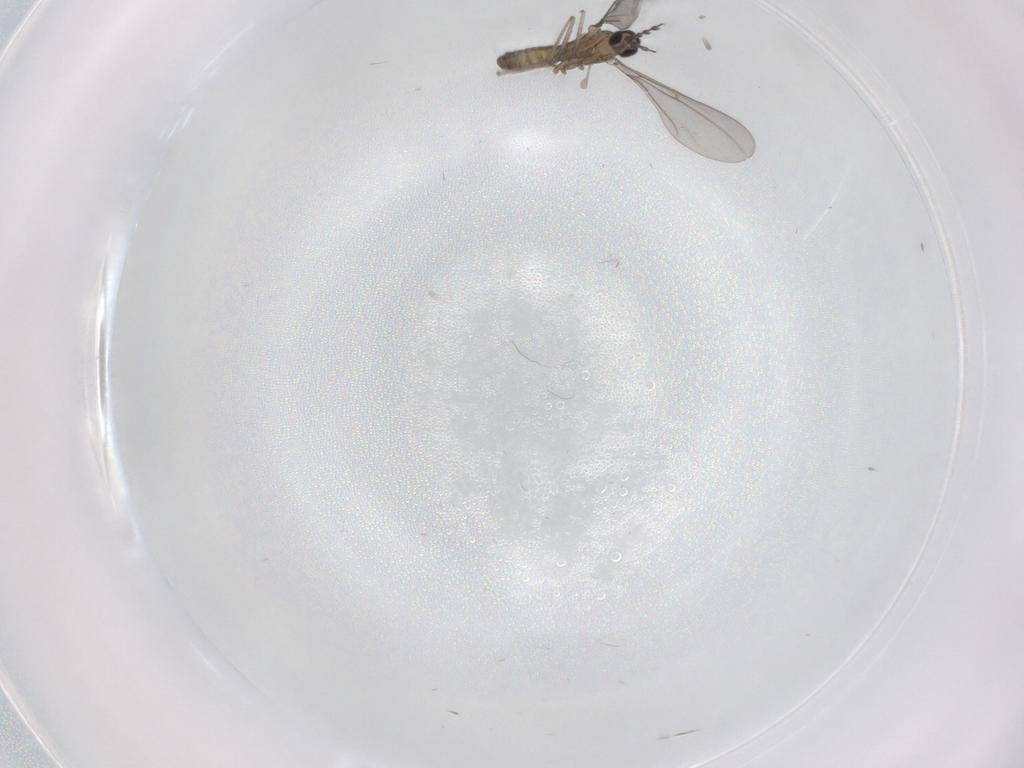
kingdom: Animalia
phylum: Arthropoda
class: Insecta
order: Diptera
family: Sciaridae
